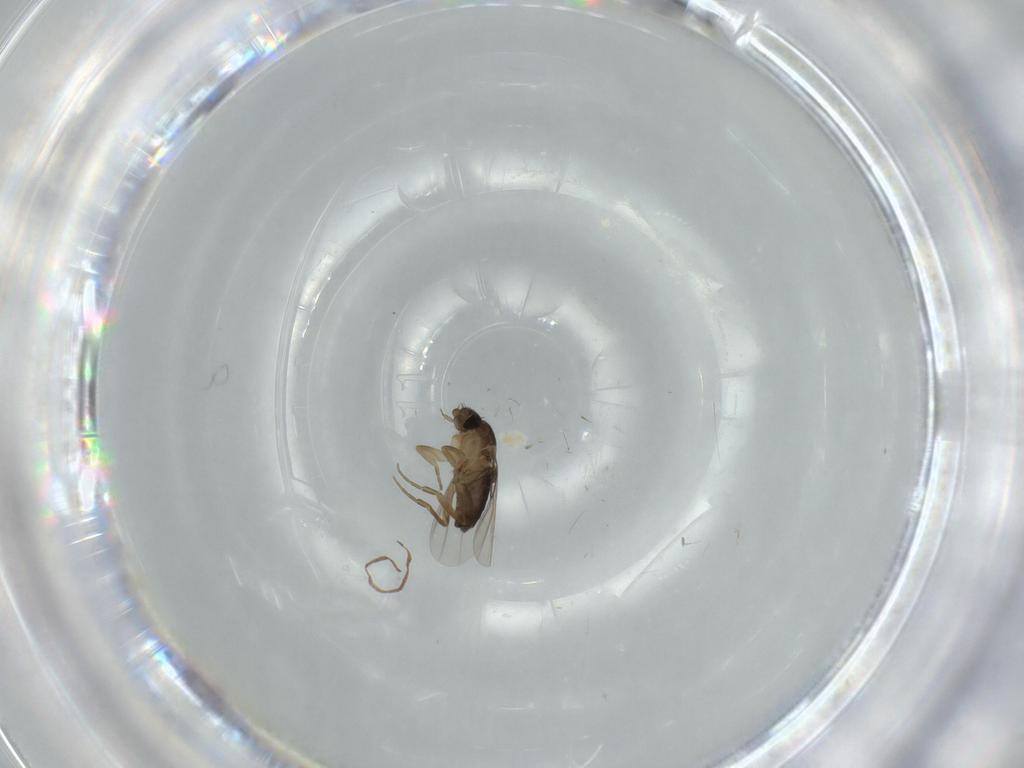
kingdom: Animalia
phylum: Arthropoda
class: Insecta
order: Diptera
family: Phoridae
